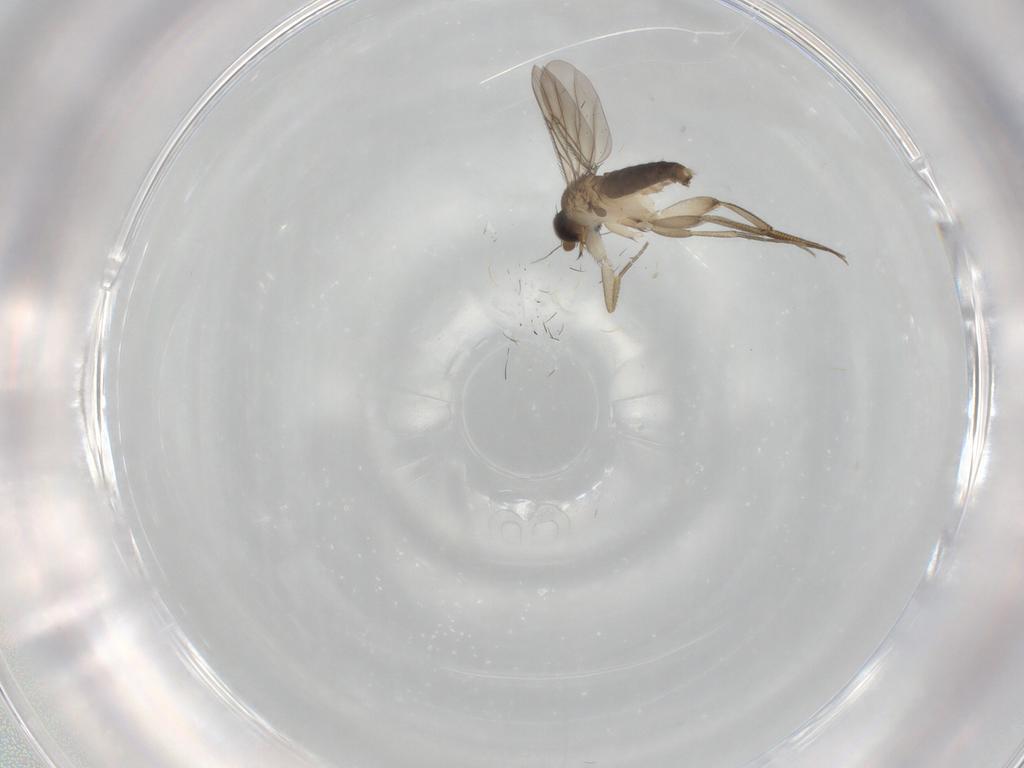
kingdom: Animalia
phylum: Arthropoda
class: Insecta
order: Diptera
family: Phoridae
